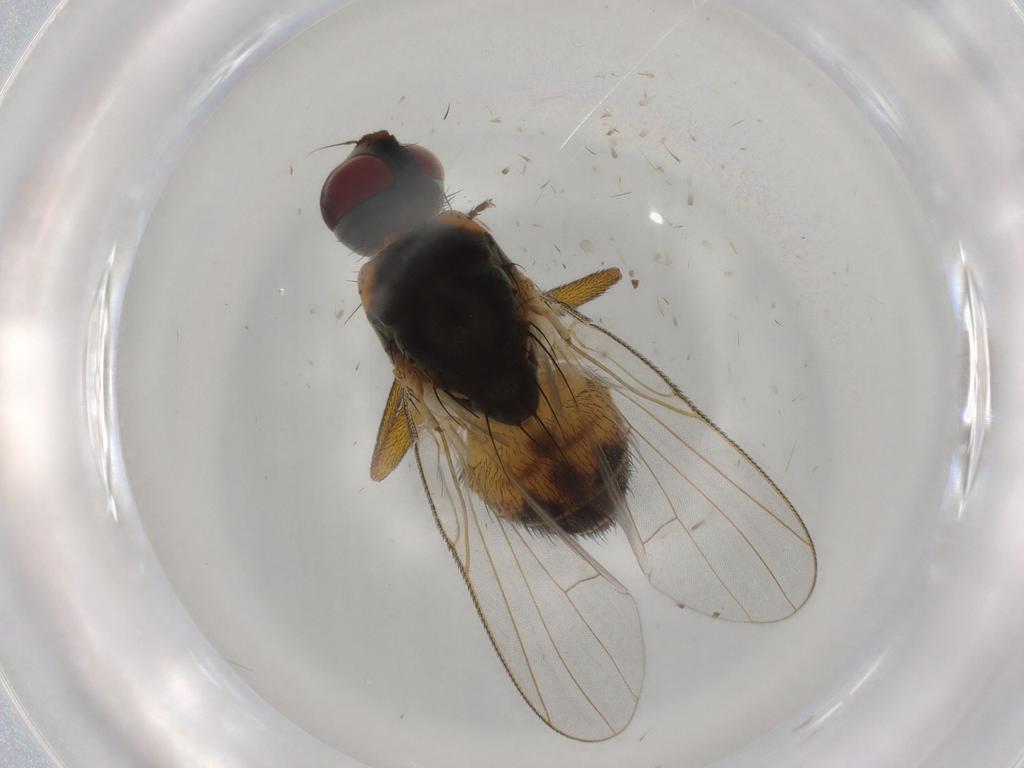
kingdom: Animalia
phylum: Arthropoda
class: Insecta
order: Diptera
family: Muscidae
